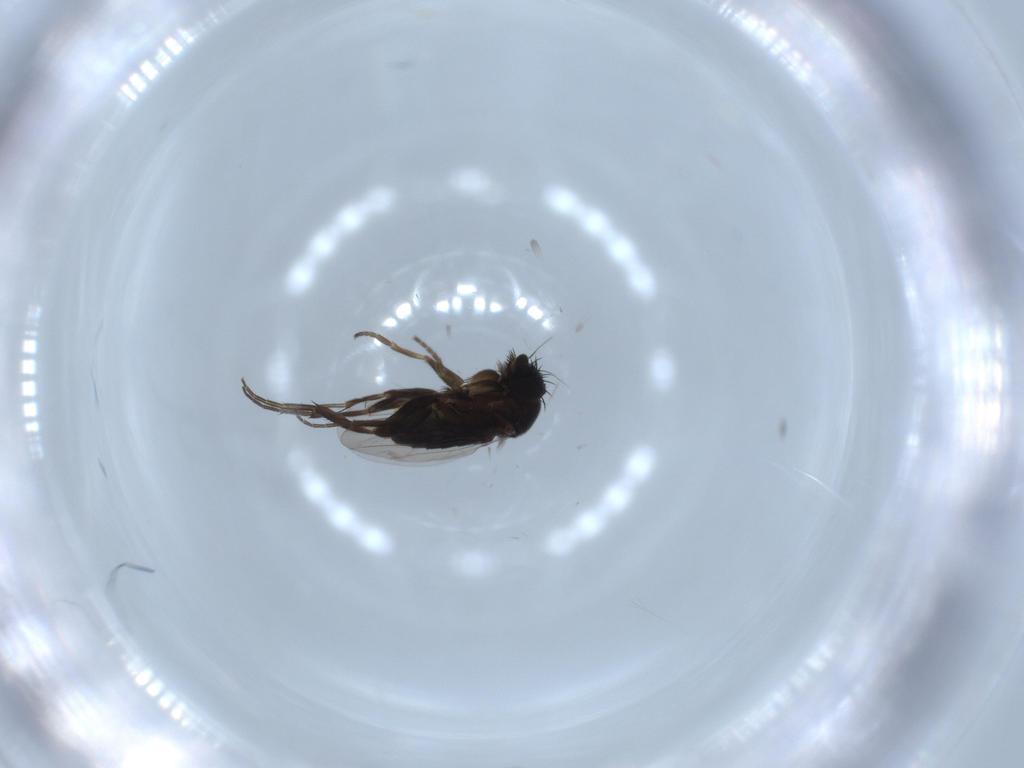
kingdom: Animalia
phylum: Arthropoda
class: Insecta
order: Diptera
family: Phoridae
